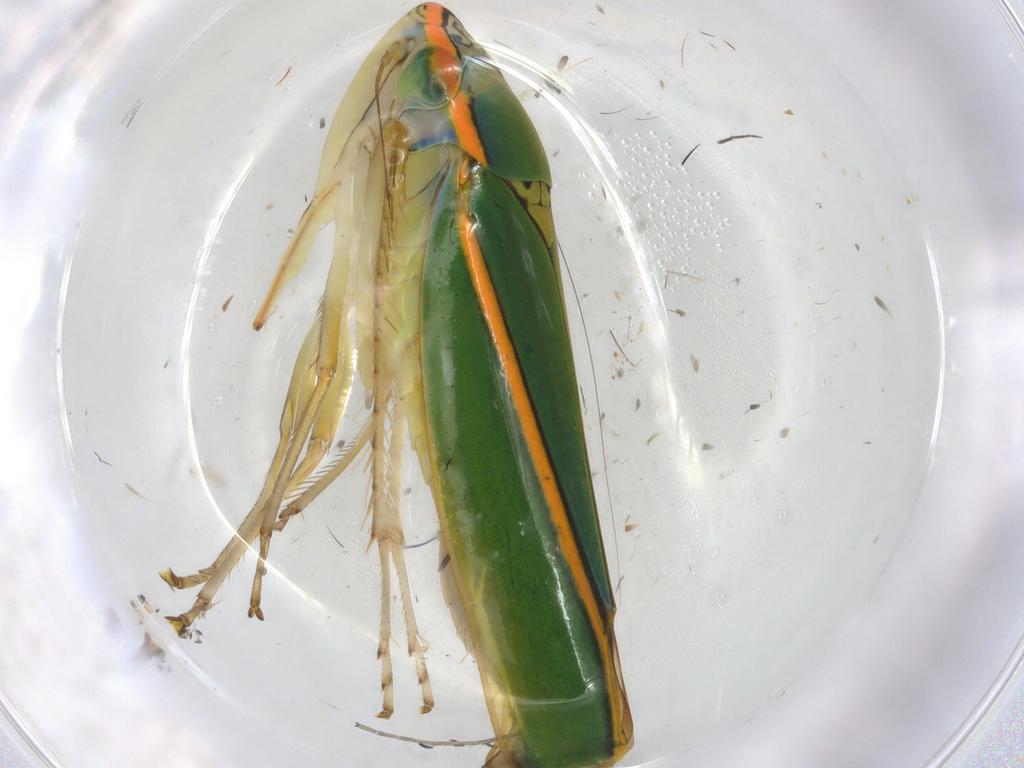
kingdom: Animalia
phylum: Arthropoda
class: Insecta
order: Hemiptera
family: Cicadellidae
